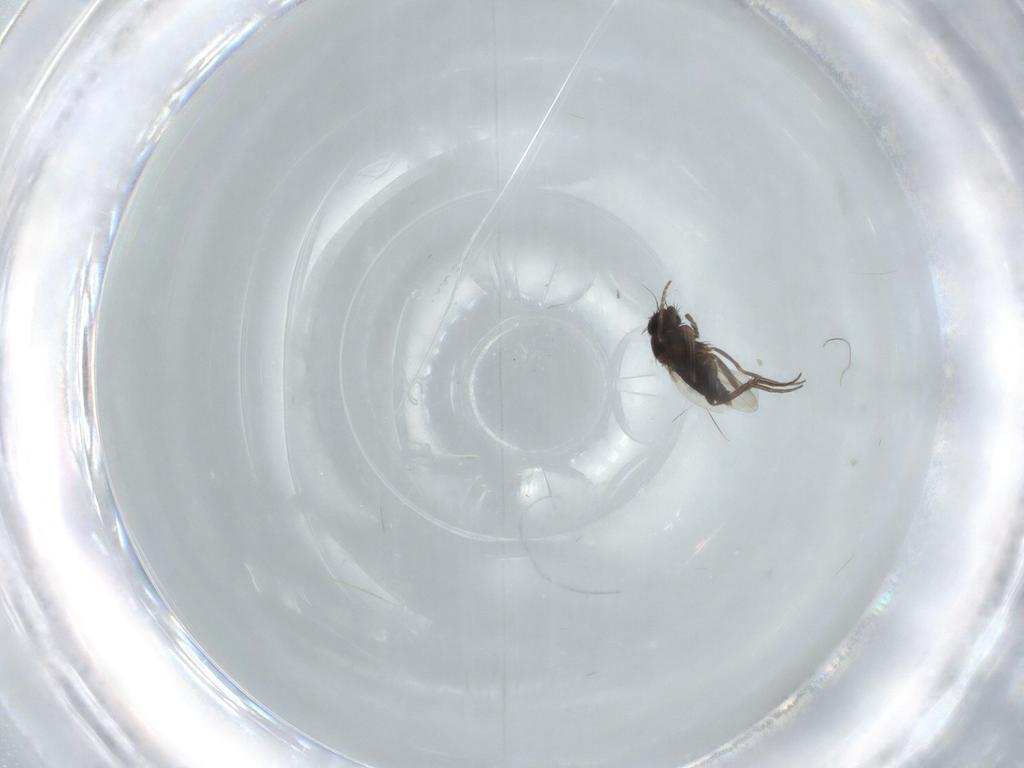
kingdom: Animalia
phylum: Arthropoda
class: Insecta
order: Diptera
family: Phoridae
